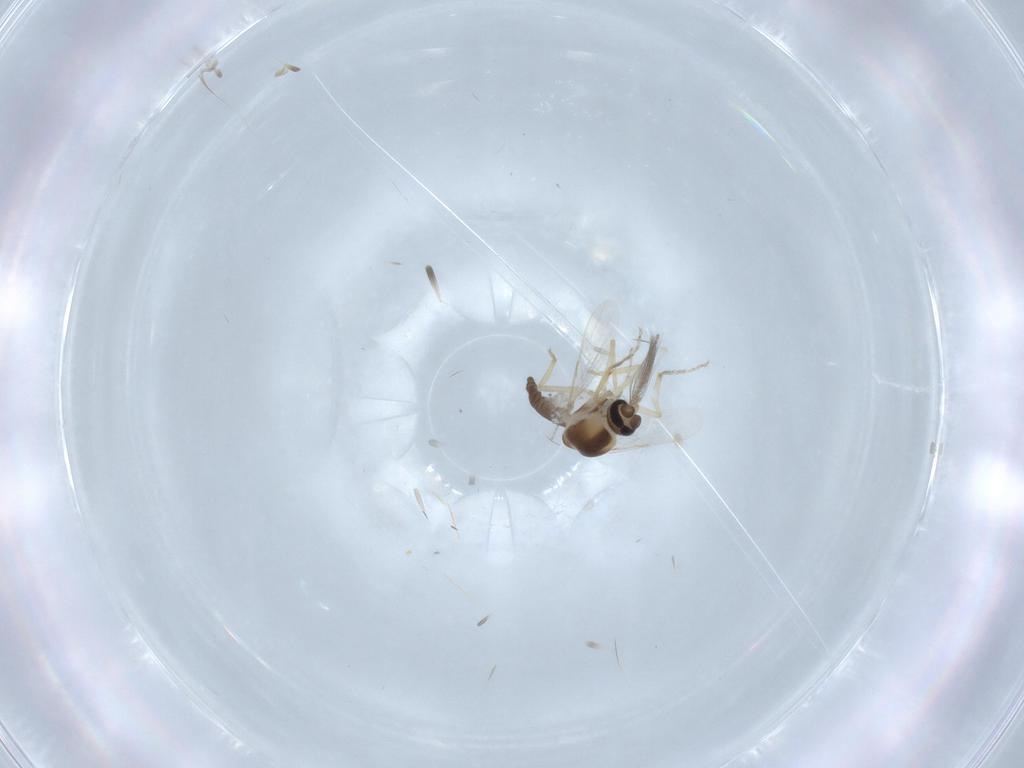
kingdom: Animalia
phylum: Arthropoda
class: Insecta
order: Diptera
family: Ceratopogonidae
